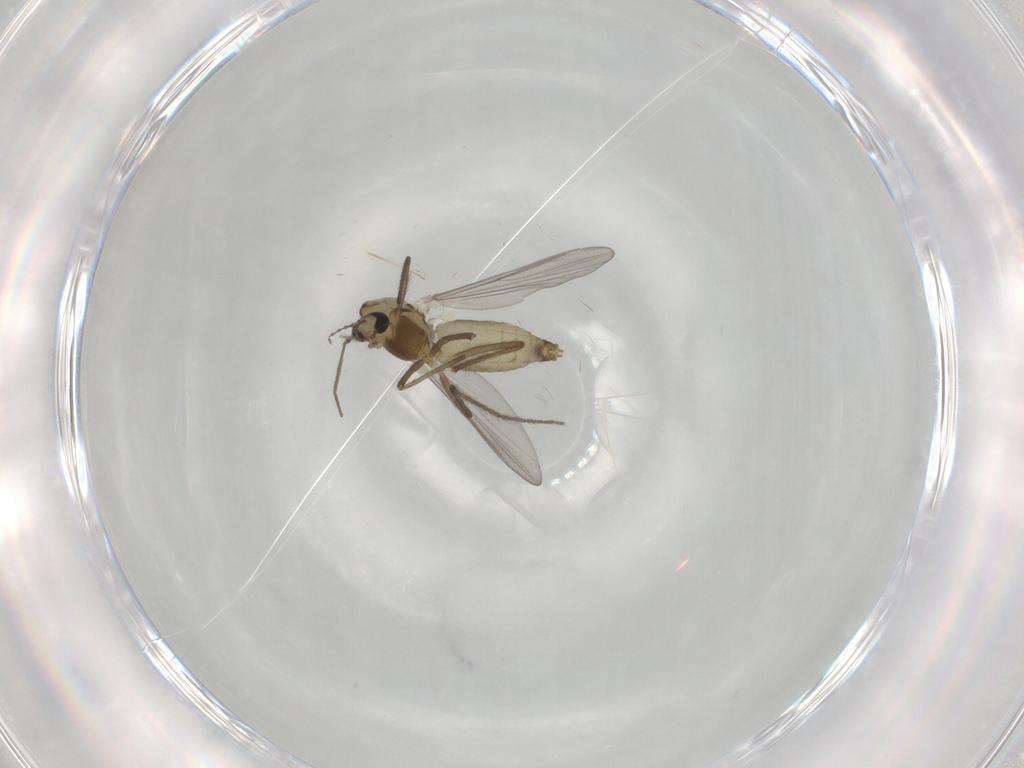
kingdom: Animalia
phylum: Arthropoda
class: Insecta
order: Diptera
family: Chironomidae
